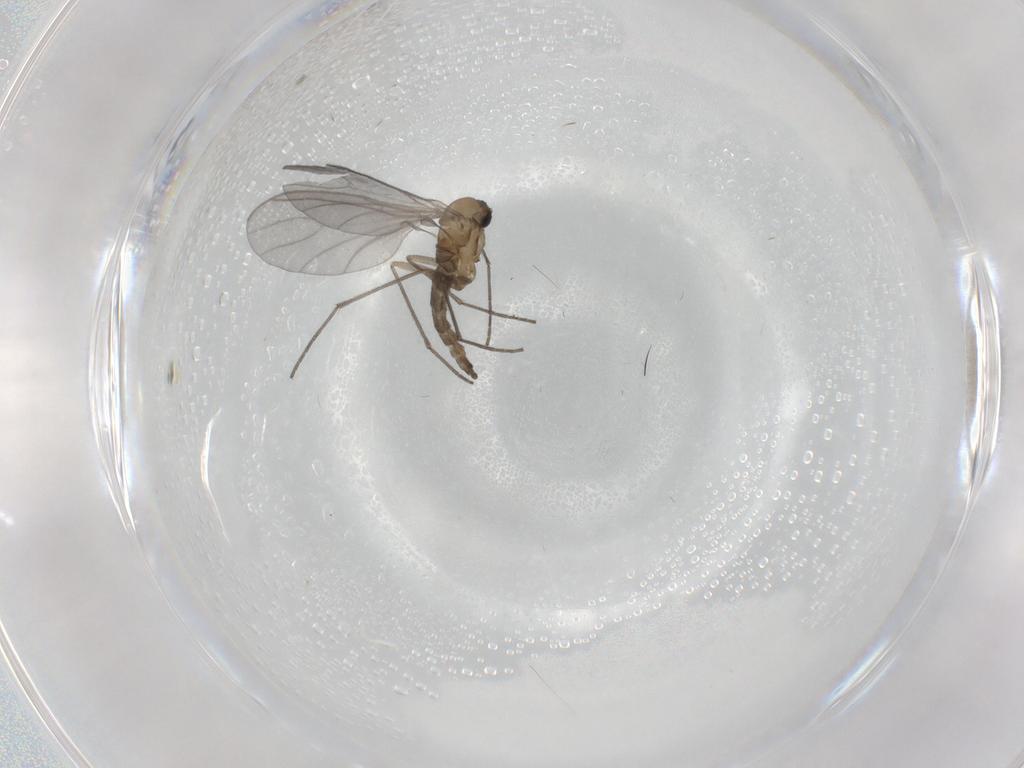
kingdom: Animalia
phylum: Arthropoda
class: Insecta
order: Diptera
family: Sciaridae
